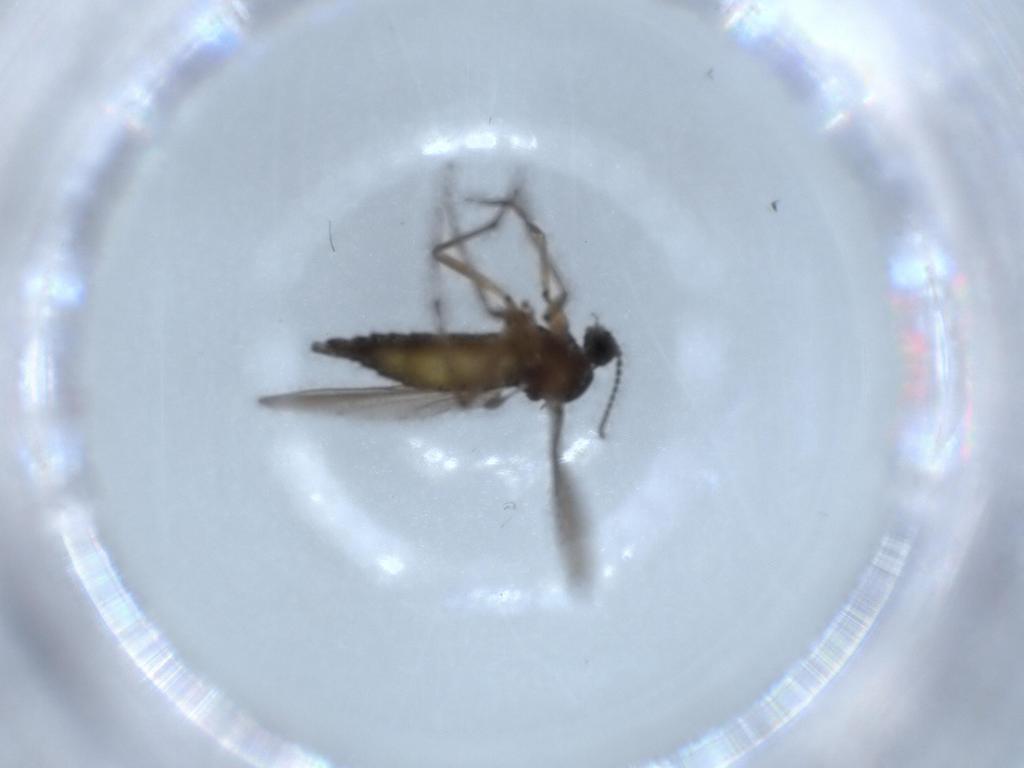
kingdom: Animalia
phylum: Arthropoda
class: Insecta
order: Diptera
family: Sciaridae
